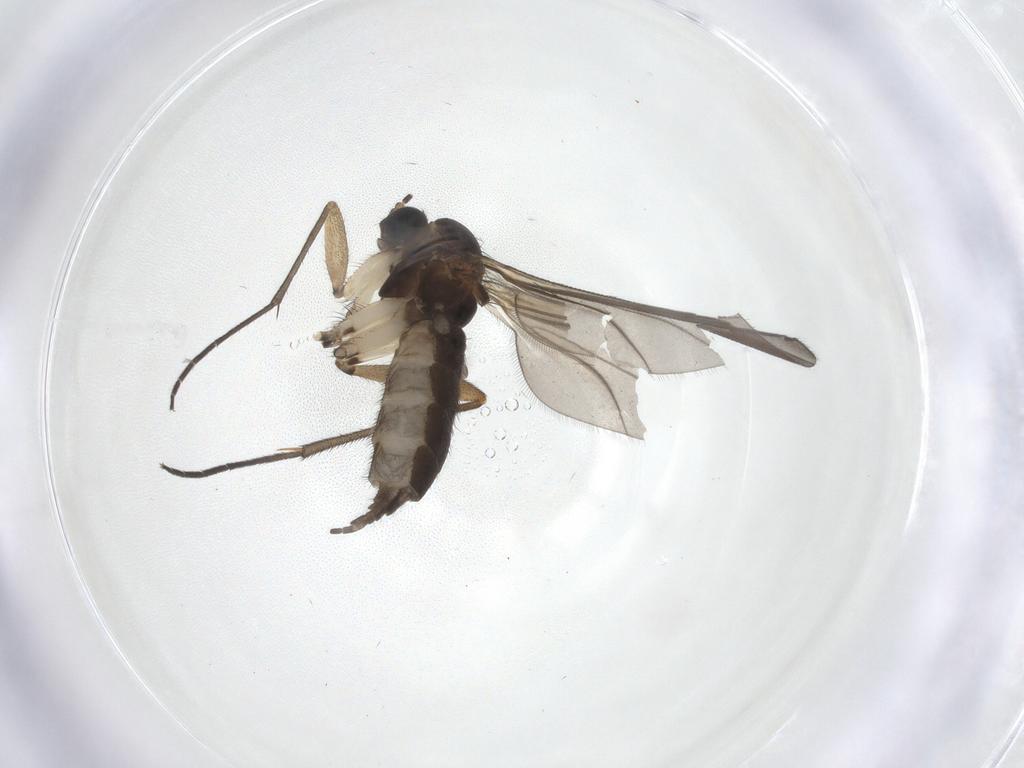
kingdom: Animalia
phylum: Arthropoda
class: Insecta
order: Diptera
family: Sciaridae
